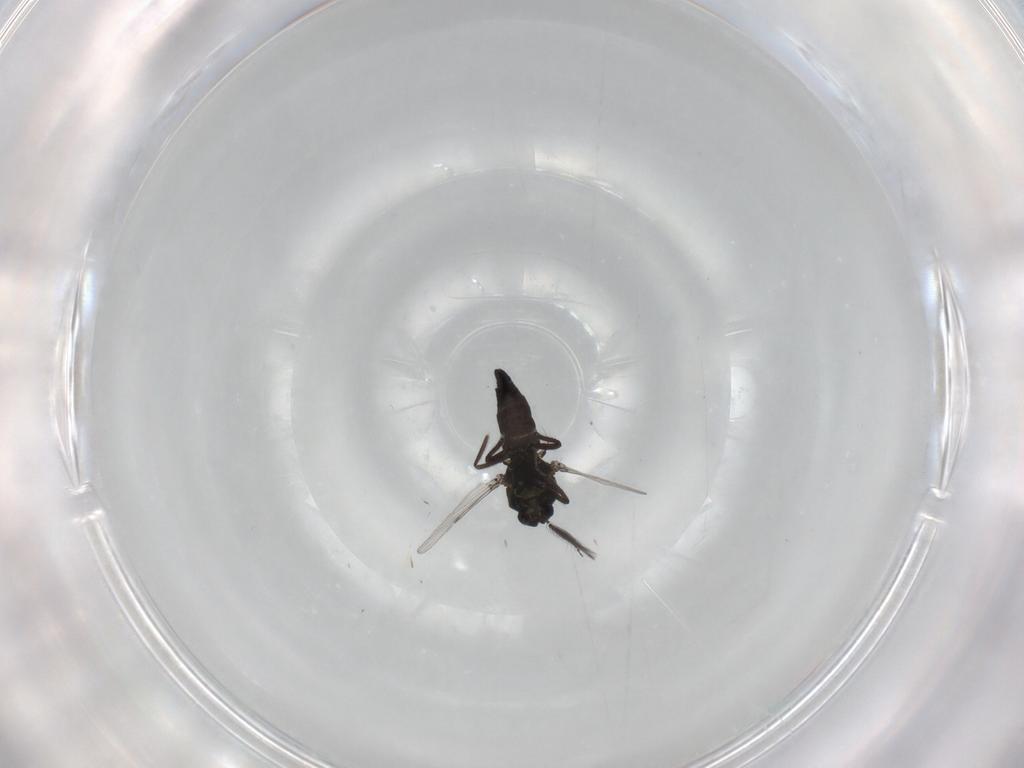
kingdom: Animalia
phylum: Arthropoda
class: Insecta
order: Diptera
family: Ceratopogonidae
